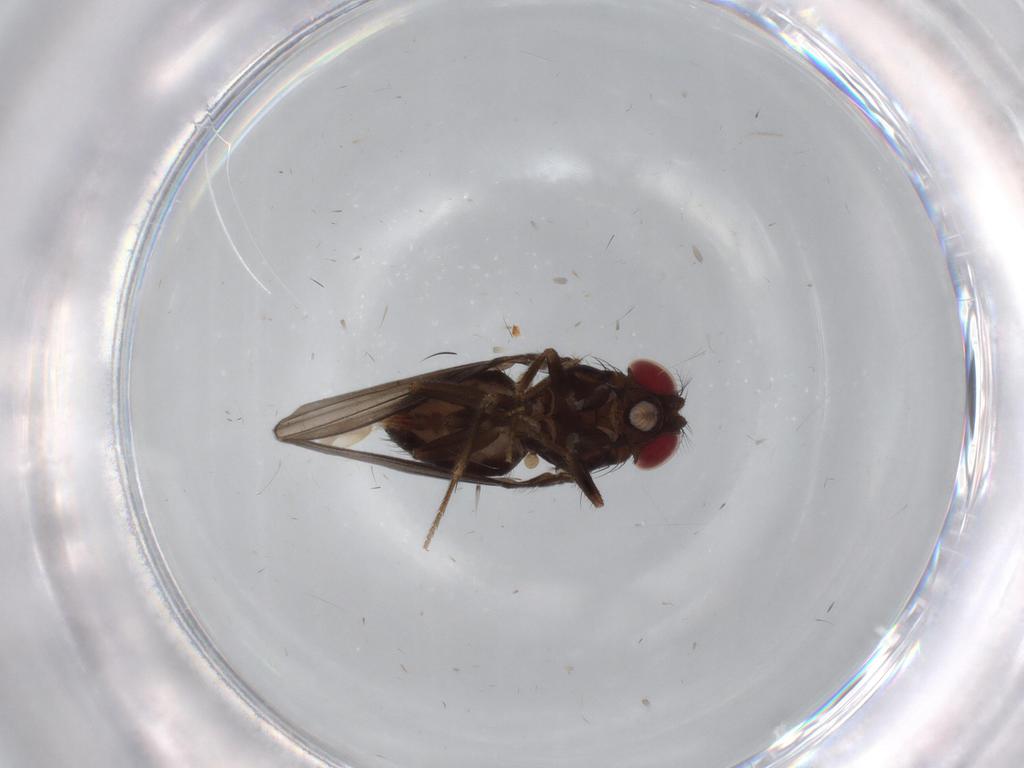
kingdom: Animalia
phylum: Arthropoda
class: Insecta
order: Diptera
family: Drosophilidae
